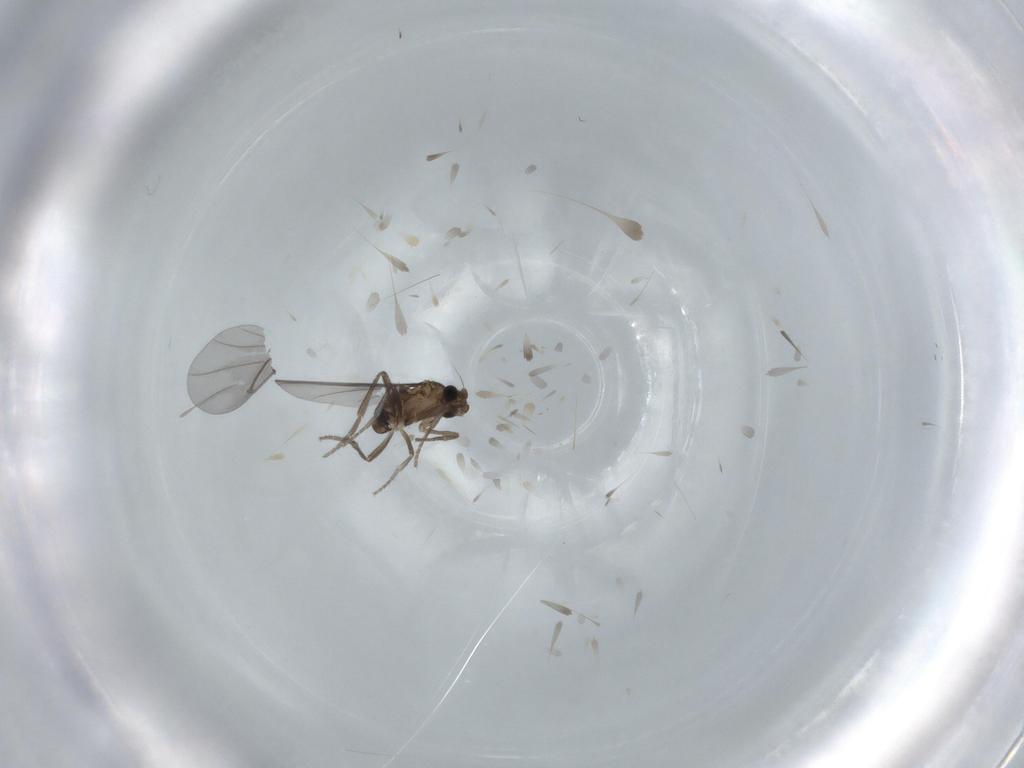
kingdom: Animalia
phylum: Arthropoda
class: Insecta
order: Diptera
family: Phoridae
